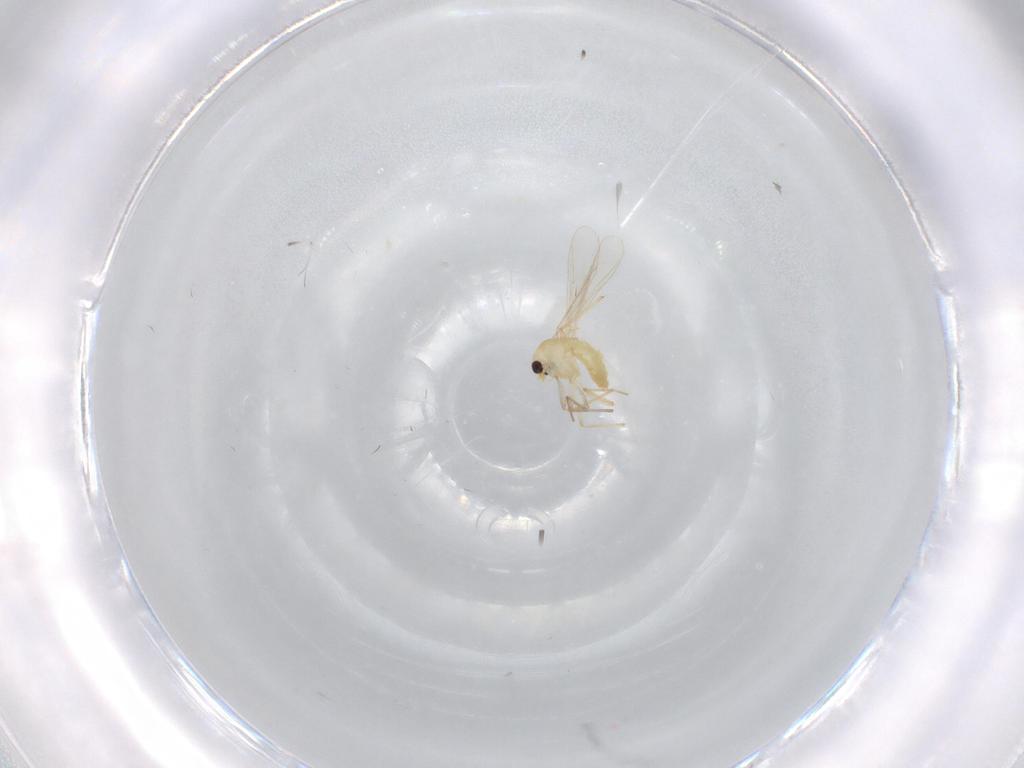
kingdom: Animalia
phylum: Arthropoda
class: Insecta
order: Diptera
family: Chironomidae
